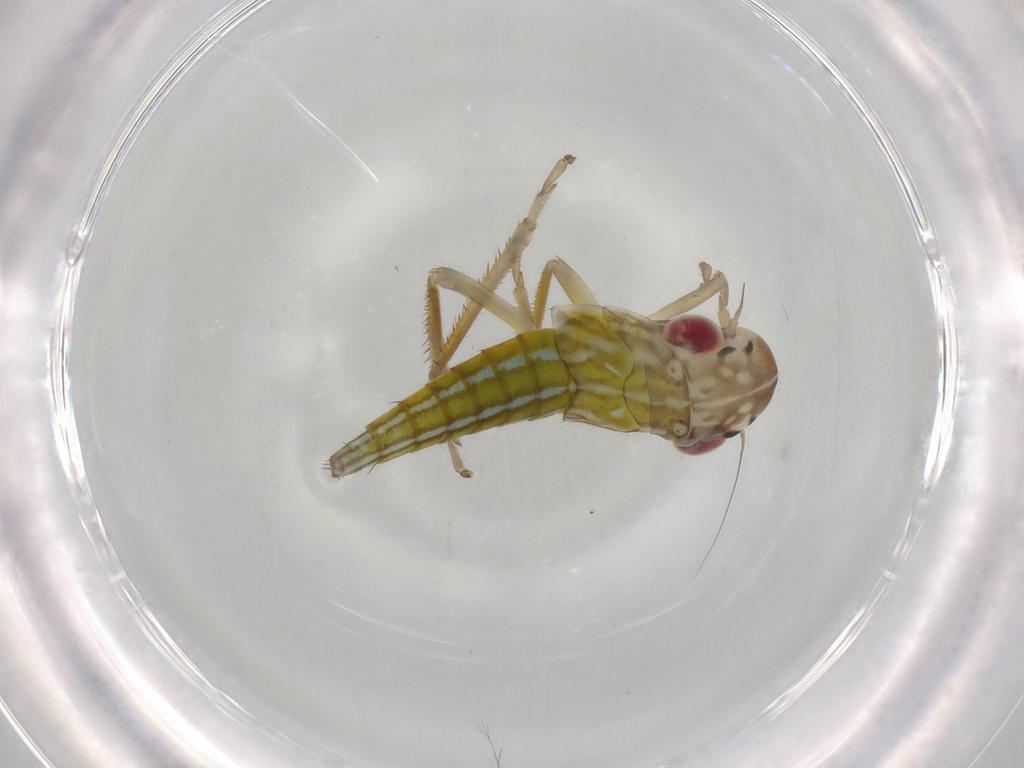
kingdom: Animalia
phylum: Arthropoda
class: Insecta
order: Hemiptera
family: Cicadellidae
